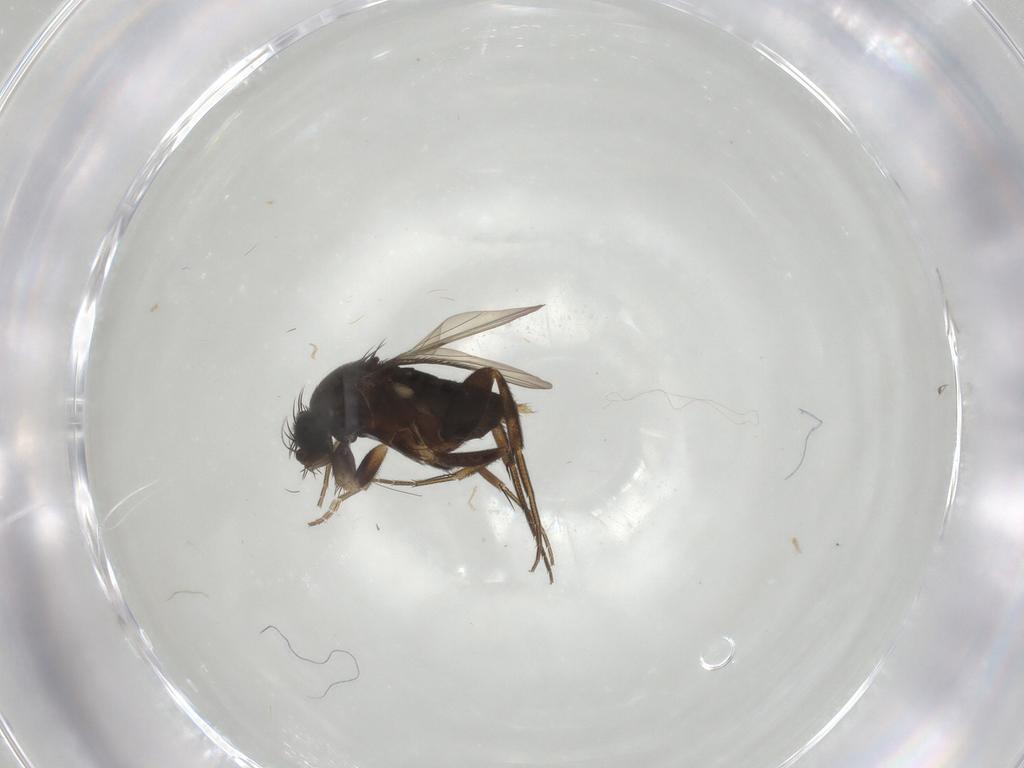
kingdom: Animalia
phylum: Arthropoda
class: Insecta
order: Diptera
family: Phoridae
